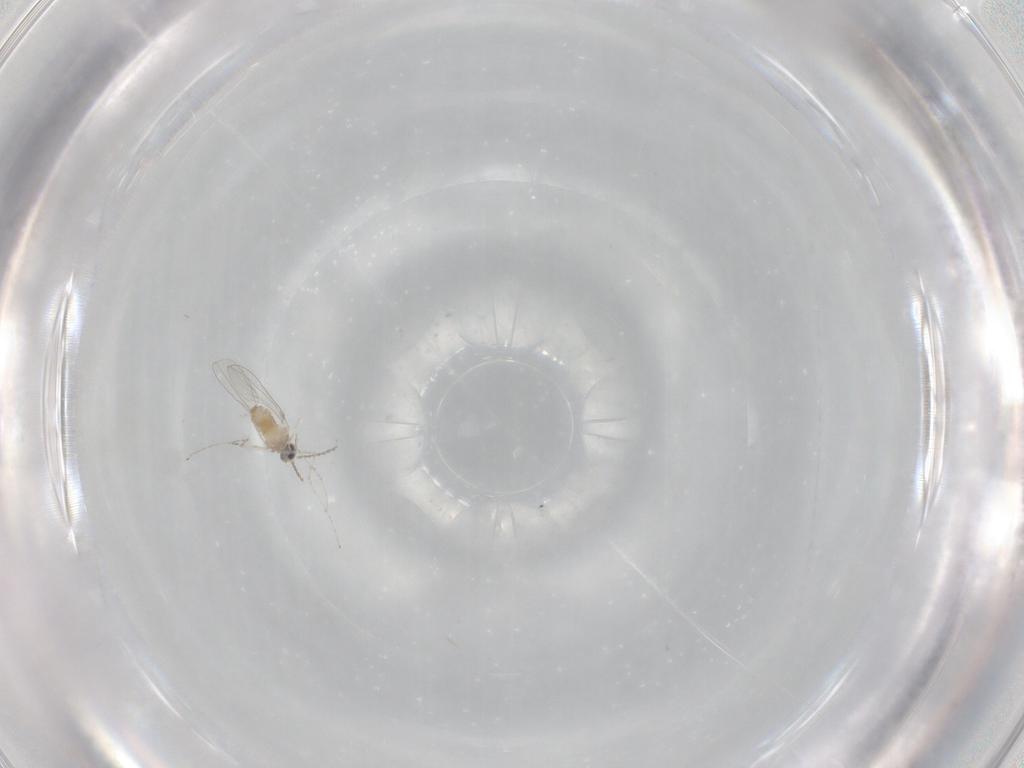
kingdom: Animalia
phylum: Arthropoda
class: Insecta
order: Diptera
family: Cecidomyiidae
